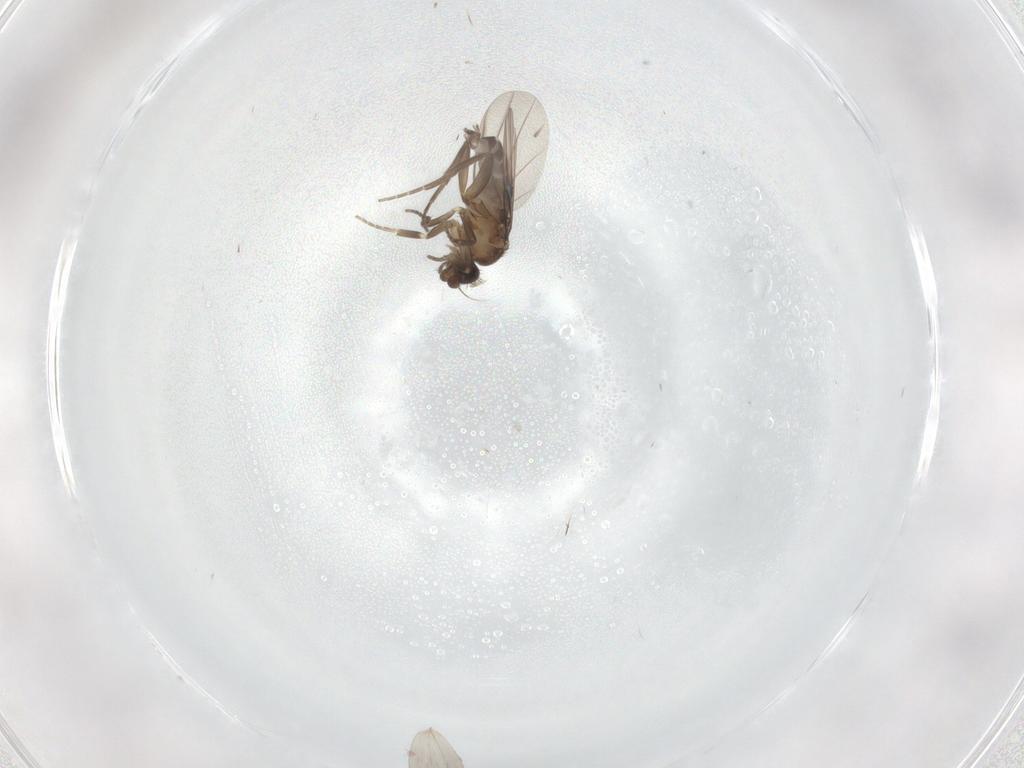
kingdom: Animalia
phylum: Arthropoda
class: Insecta
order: Diptera
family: Cecidomyiidae
